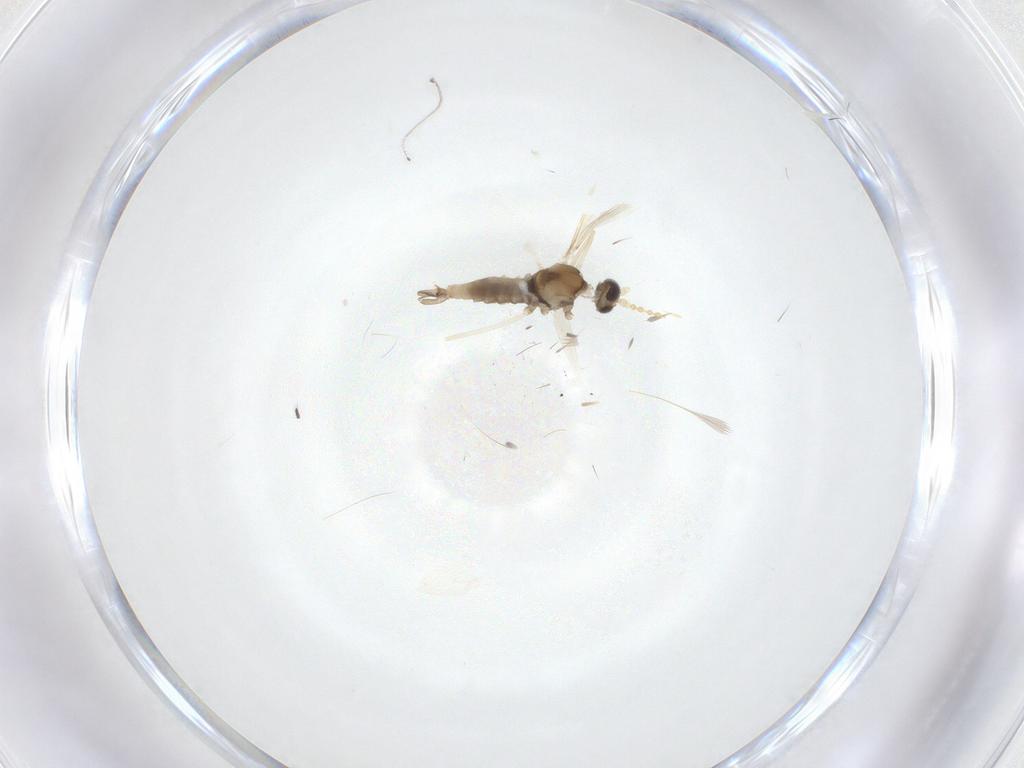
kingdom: Animalia
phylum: Arthropoda
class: Insecta
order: Diptera
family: Cecidomyiidae
